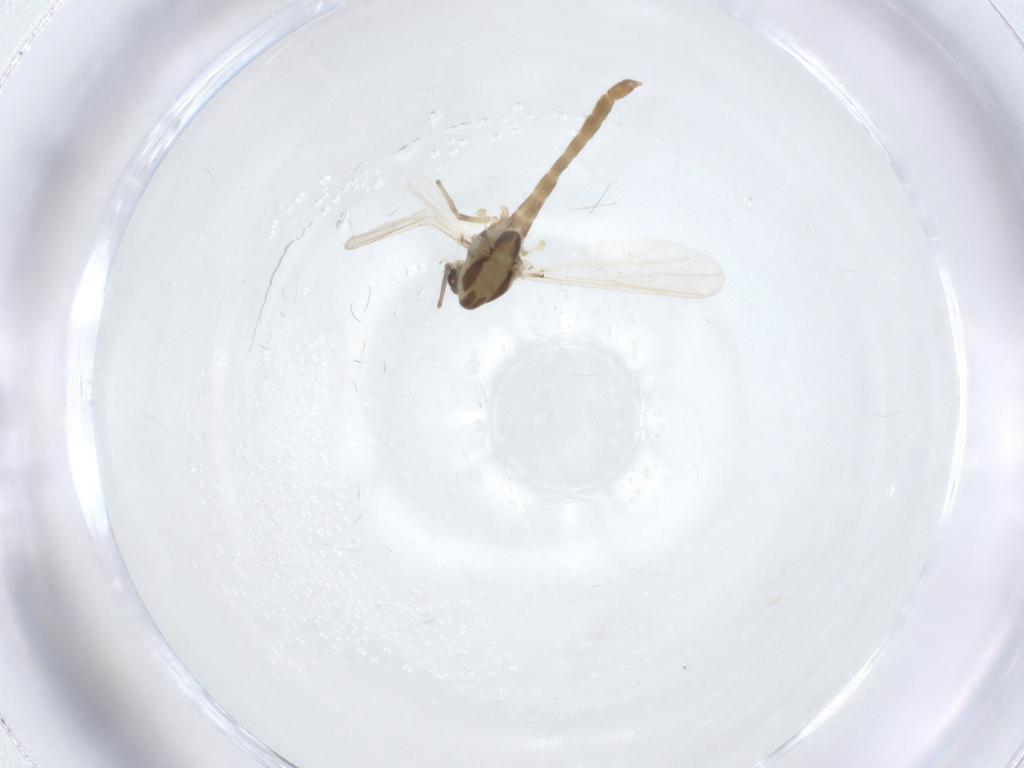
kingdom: Animalia
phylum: Arthropoda
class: Insecta
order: Diptera
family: Chironomidae
